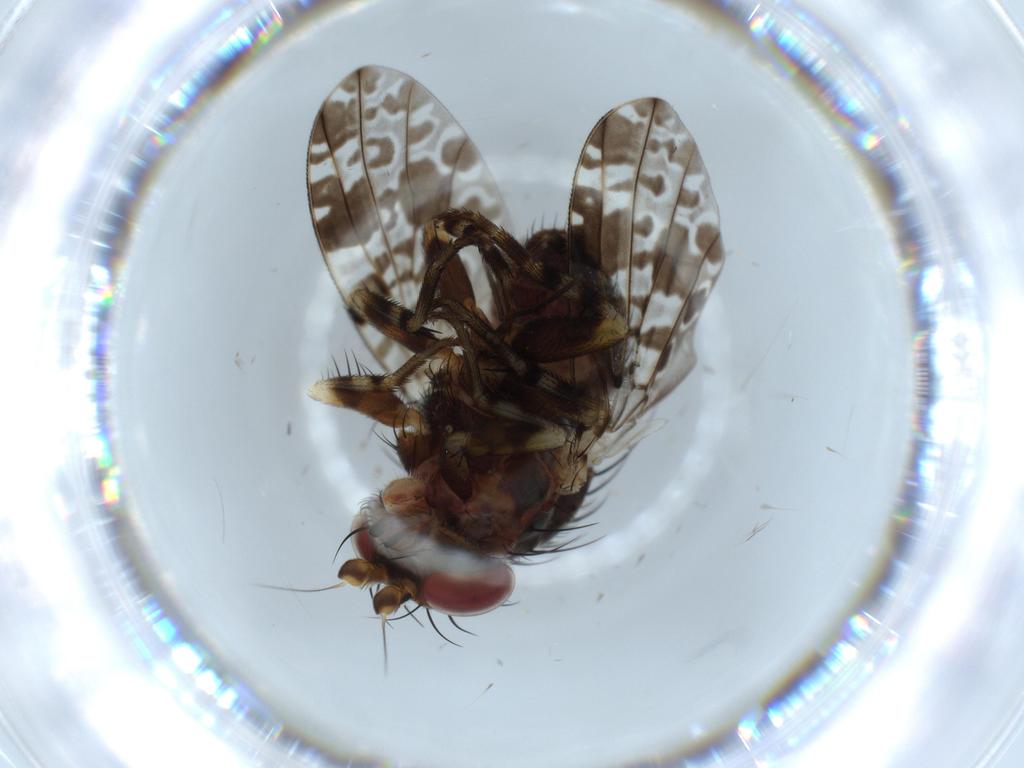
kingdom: Animalia
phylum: Arthropoda
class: Insecta
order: Diptera
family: Odiniidae
